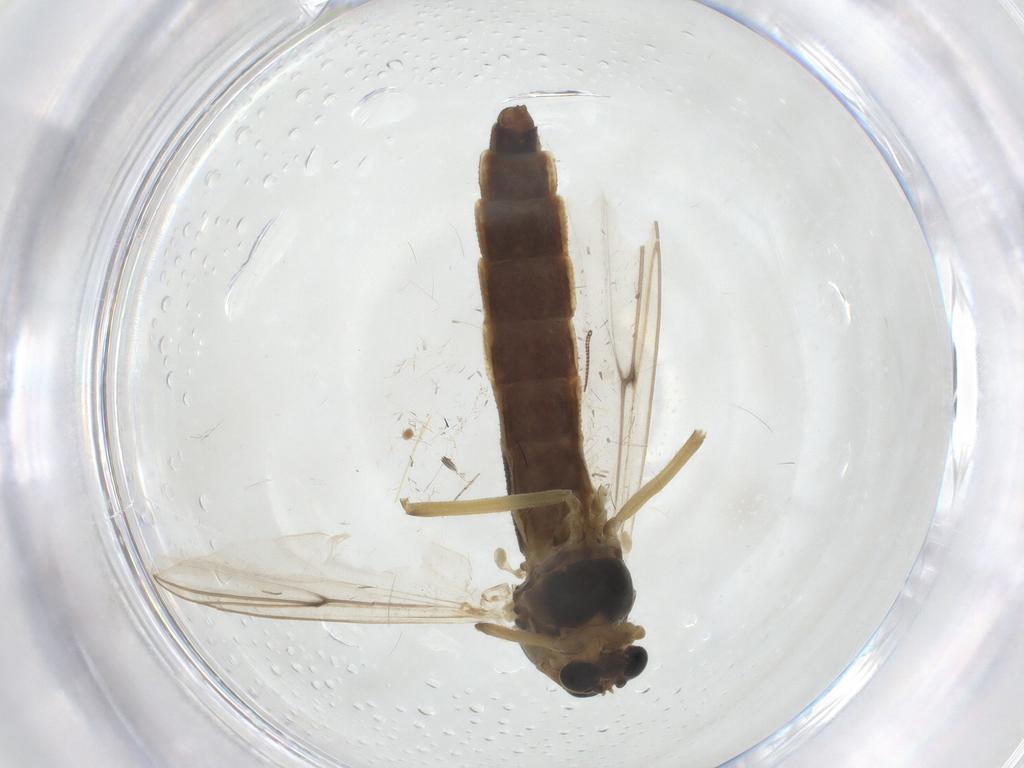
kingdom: Animalia
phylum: Arthropoda
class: Insecta
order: Diptera
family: Chironomidae
